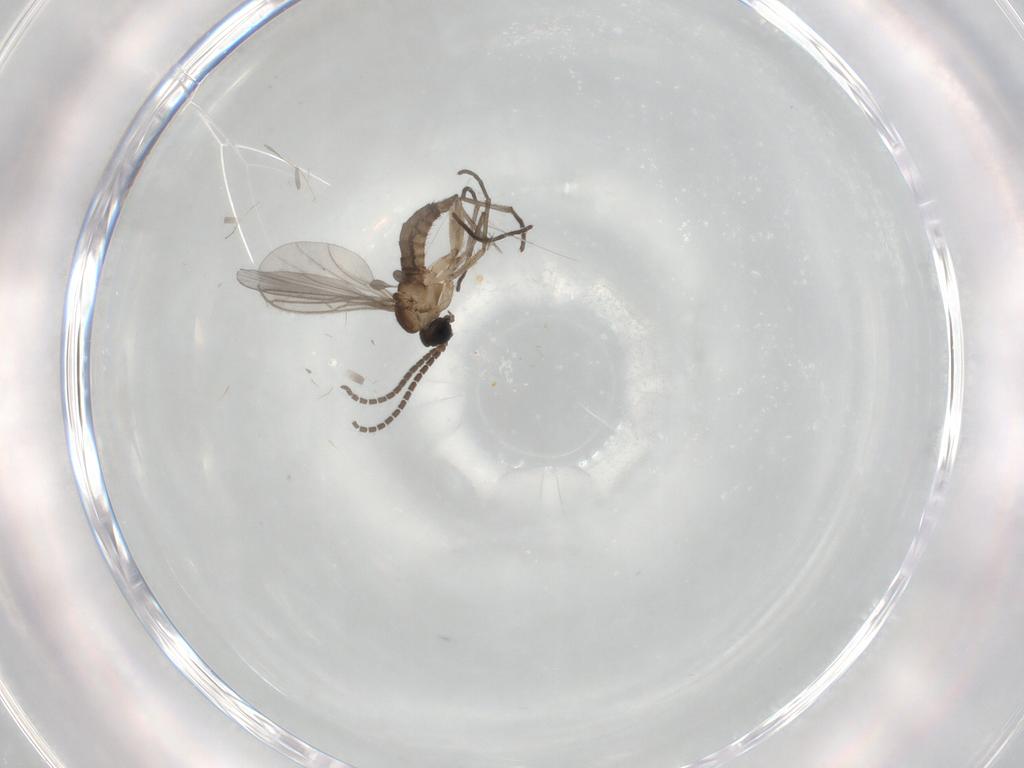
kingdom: Animalia
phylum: Arthropoda
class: Insecta
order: Diptera
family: Sciaridae
